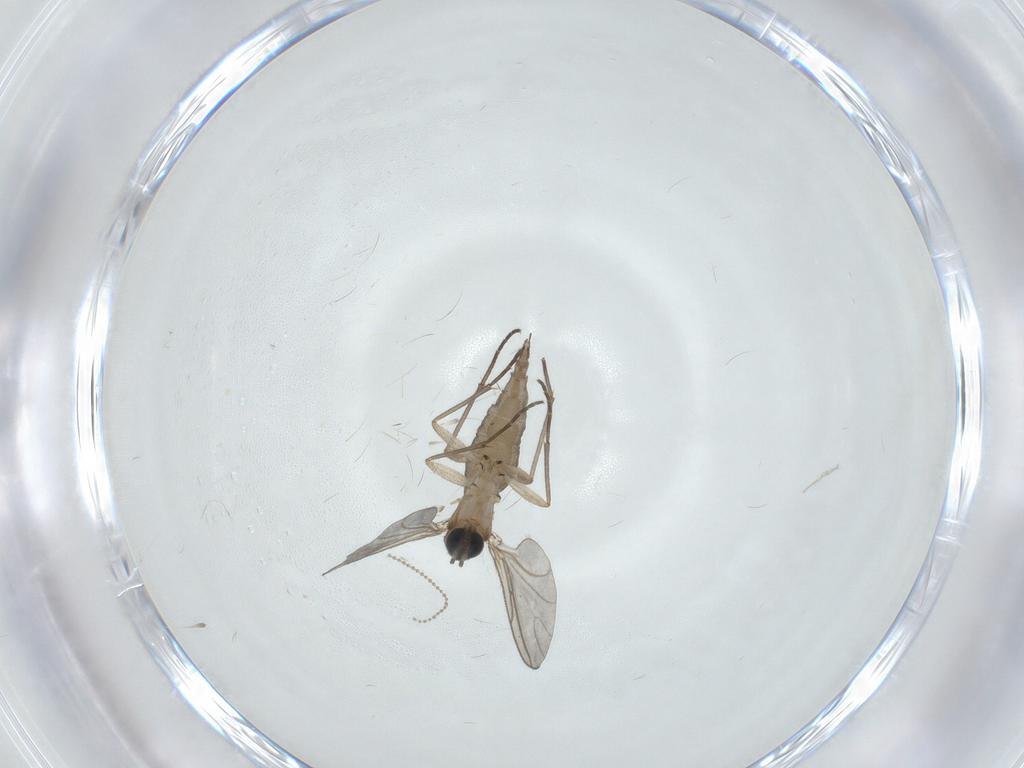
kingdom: Animalia
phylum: Arthropoda
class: Insecta
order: Diptera
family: Sciaridae
